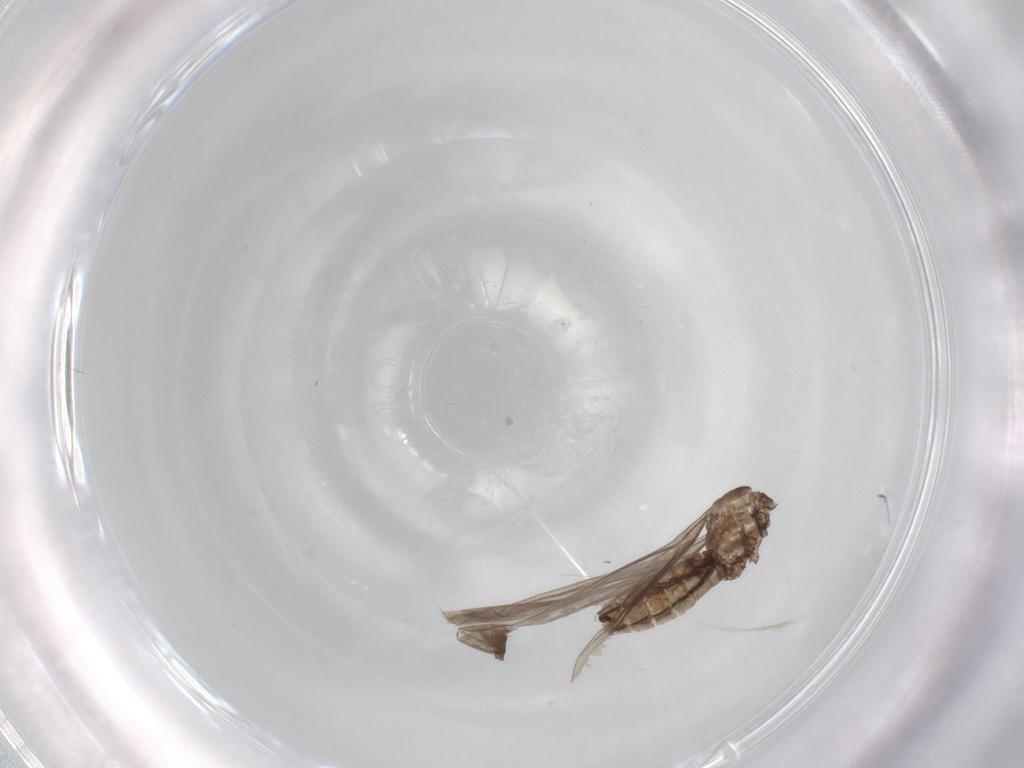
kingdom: Animalia
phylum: Arthropoda
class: Insecta
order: Diptera
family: Limoniidae
